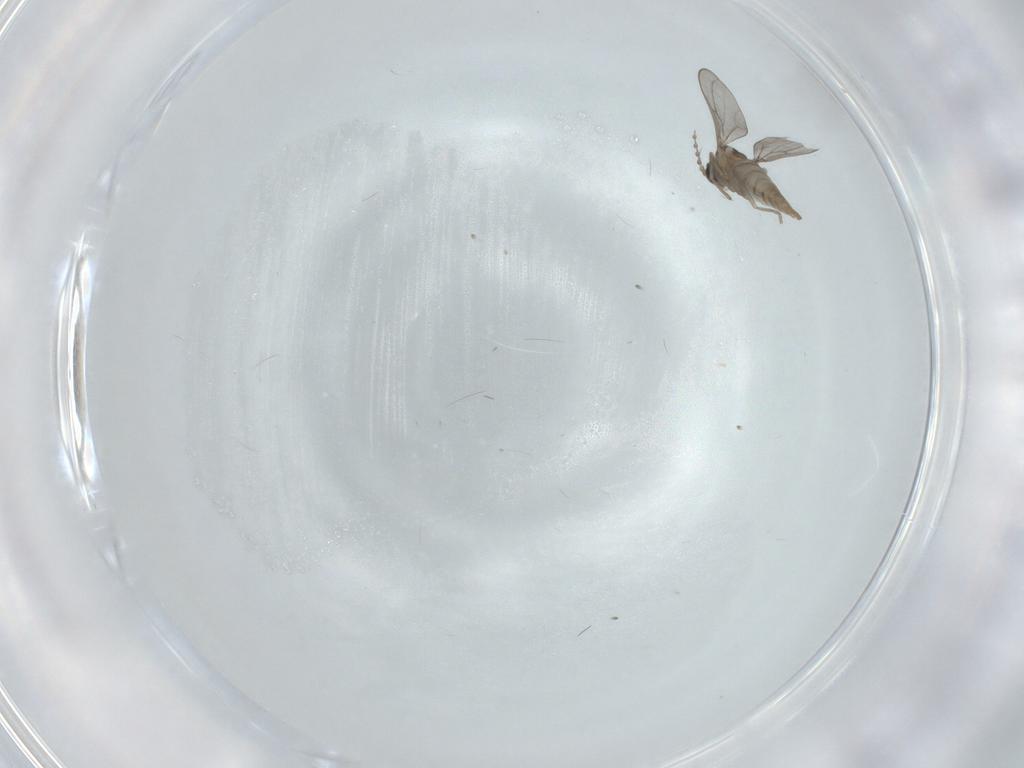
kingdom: Animalia
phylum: Arthropoda
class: Insecta
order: Diptera
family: Cecidomyiidae
